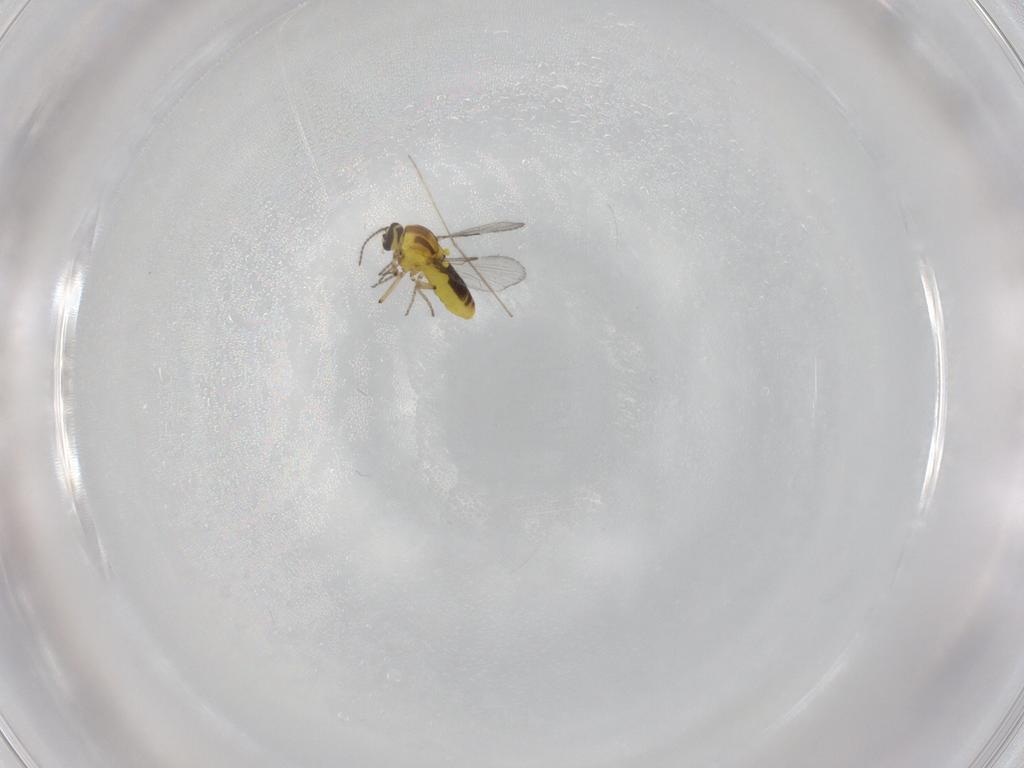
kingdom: Animalia
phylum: Arthropoda
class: Insecta
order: Diptera
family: Ceratopogonidae
